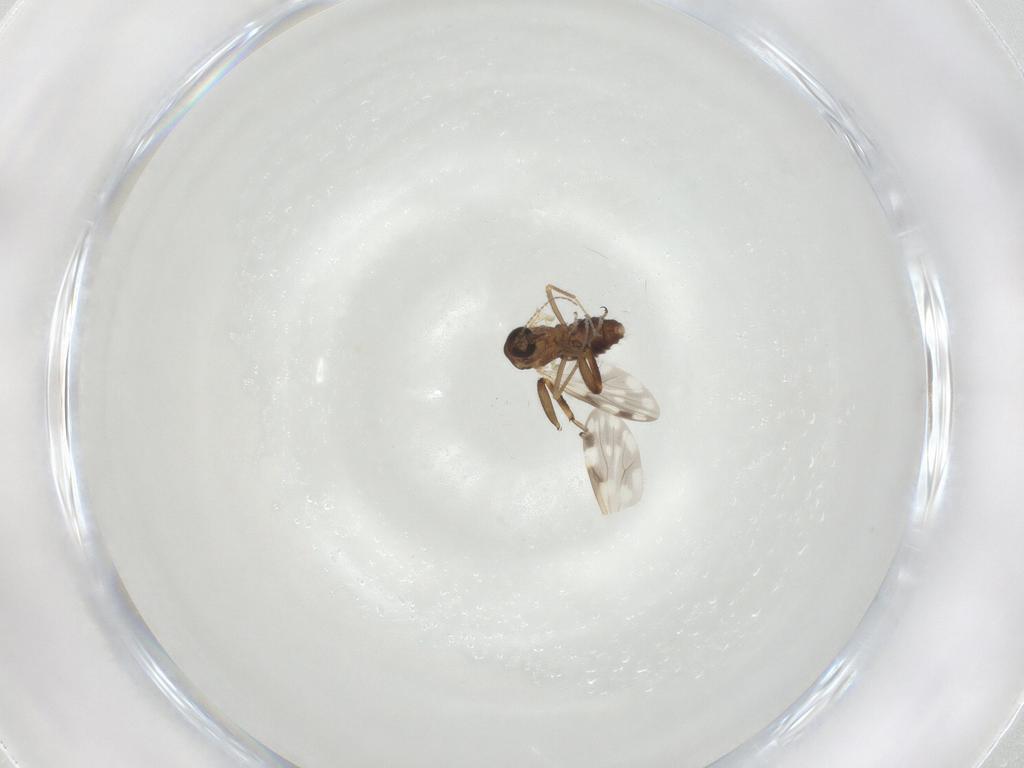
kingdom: Animalia
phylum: Arthropoda
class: Insecta
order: Diptera
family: Ceratopogonidae
